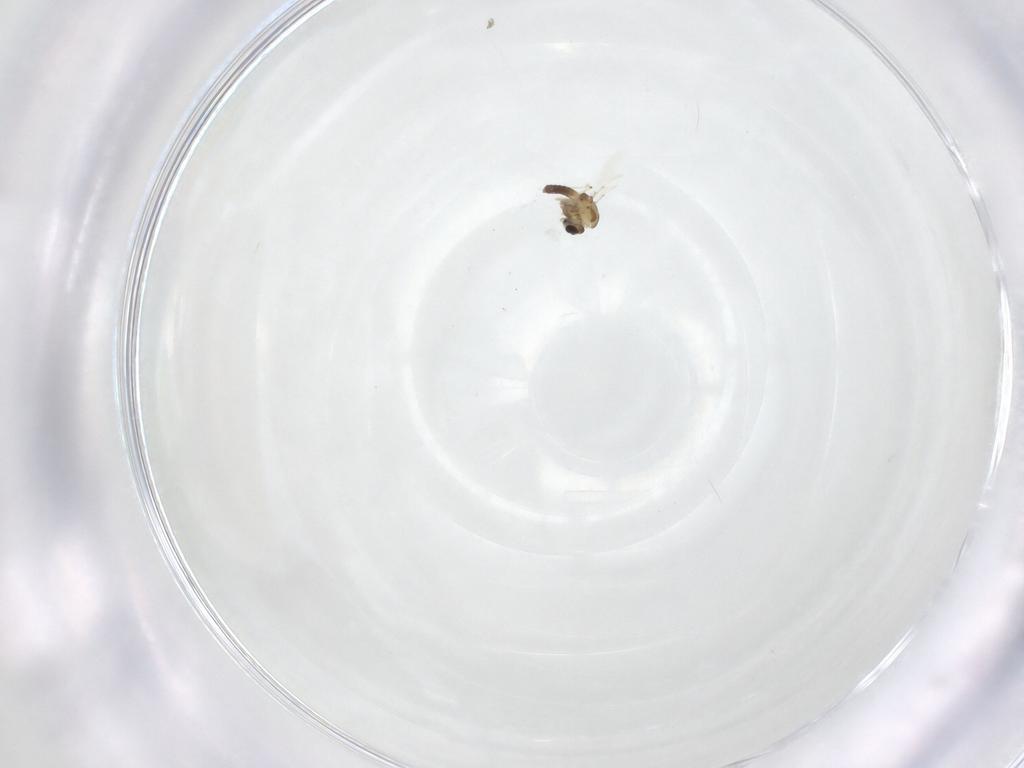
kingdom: Animalia
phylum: Arthropoda
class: Insecta
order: Diptera
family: Chironomidae
